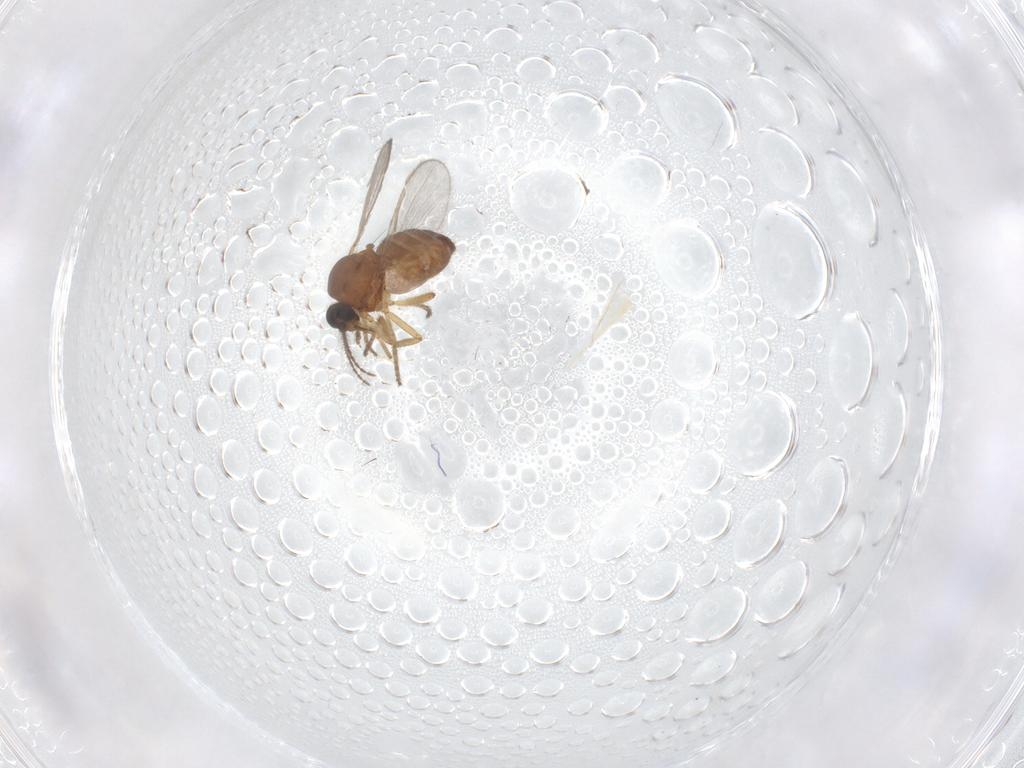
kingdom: Animalia
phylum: Arthropoda
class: Insecta
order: Diptera
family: Ceratopogonidae
